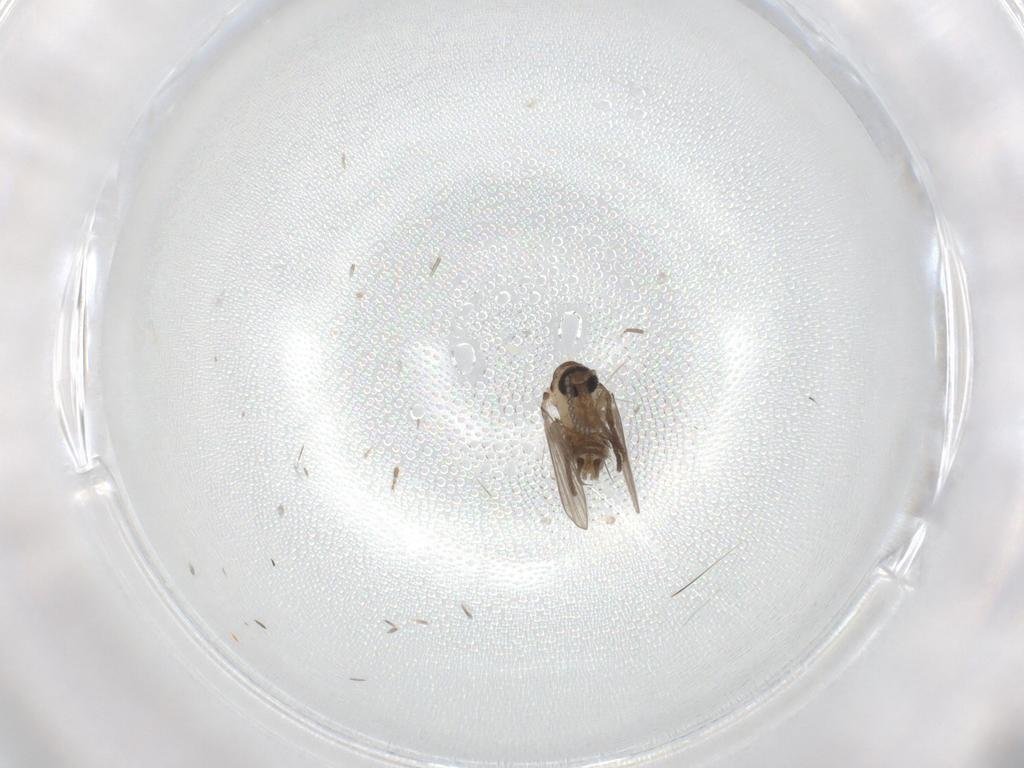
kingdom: Animalia
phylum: Arthropoda
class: Insecta
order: Diptera
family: Psychodidae
